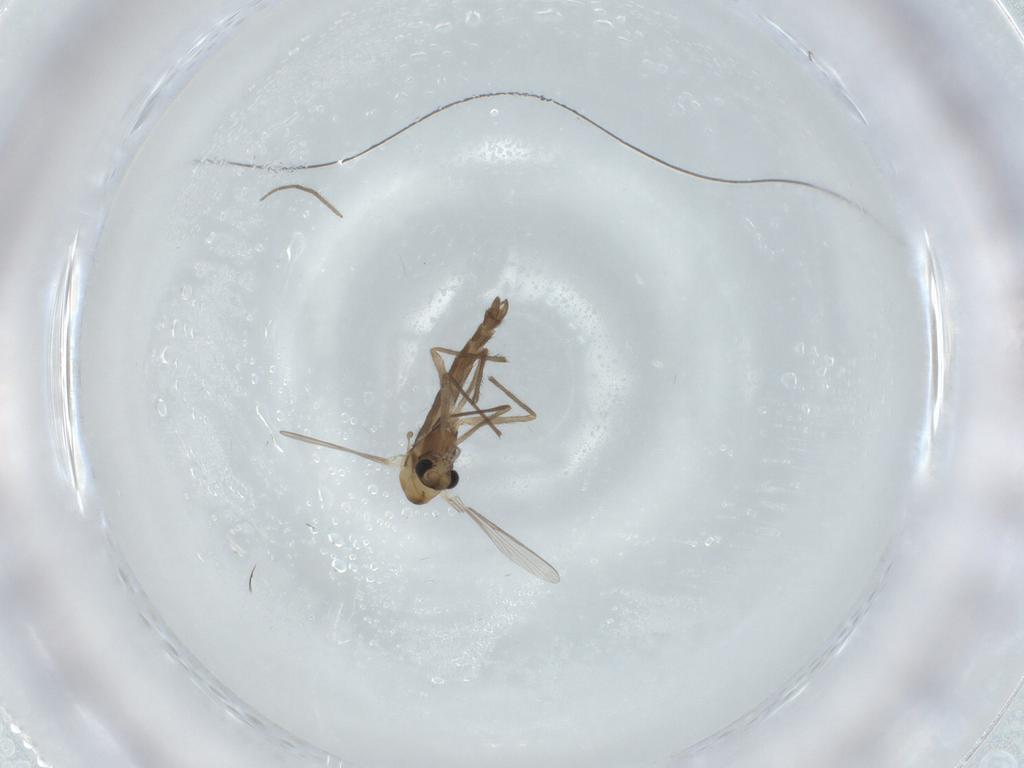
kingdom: Animalia
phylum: Arthropoda
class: Insecta
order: Diptera
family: Chironomidae
